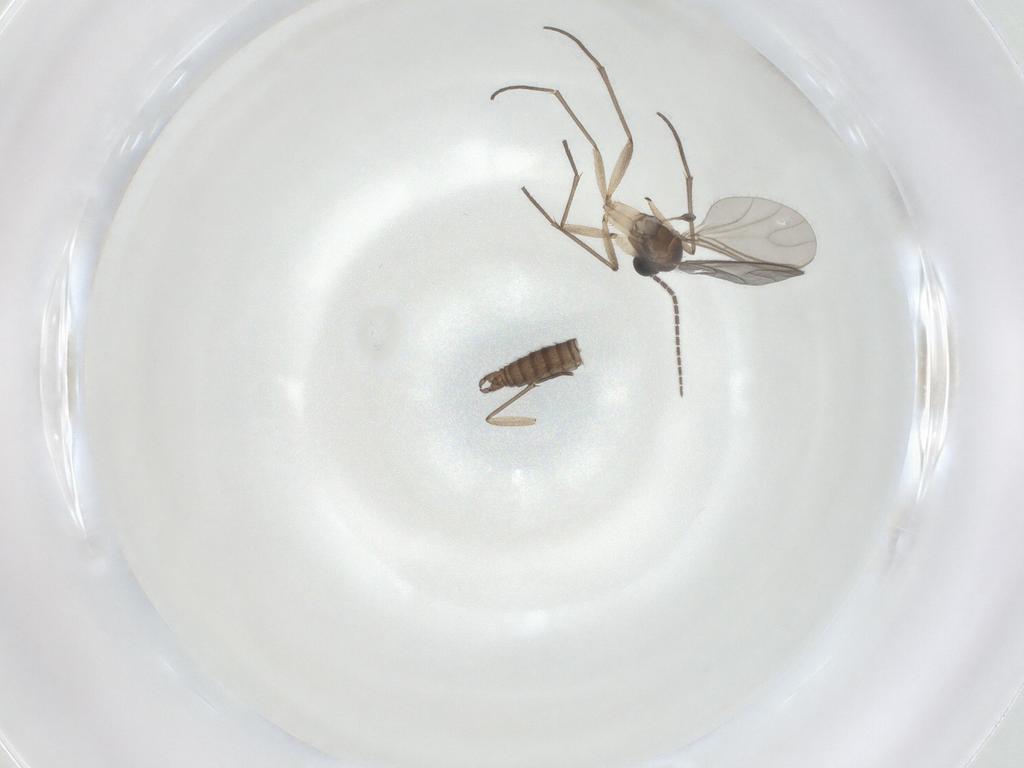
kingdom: Animalia
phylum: Arthropoda
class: Insecta
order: Diptera
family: Sciaridae
